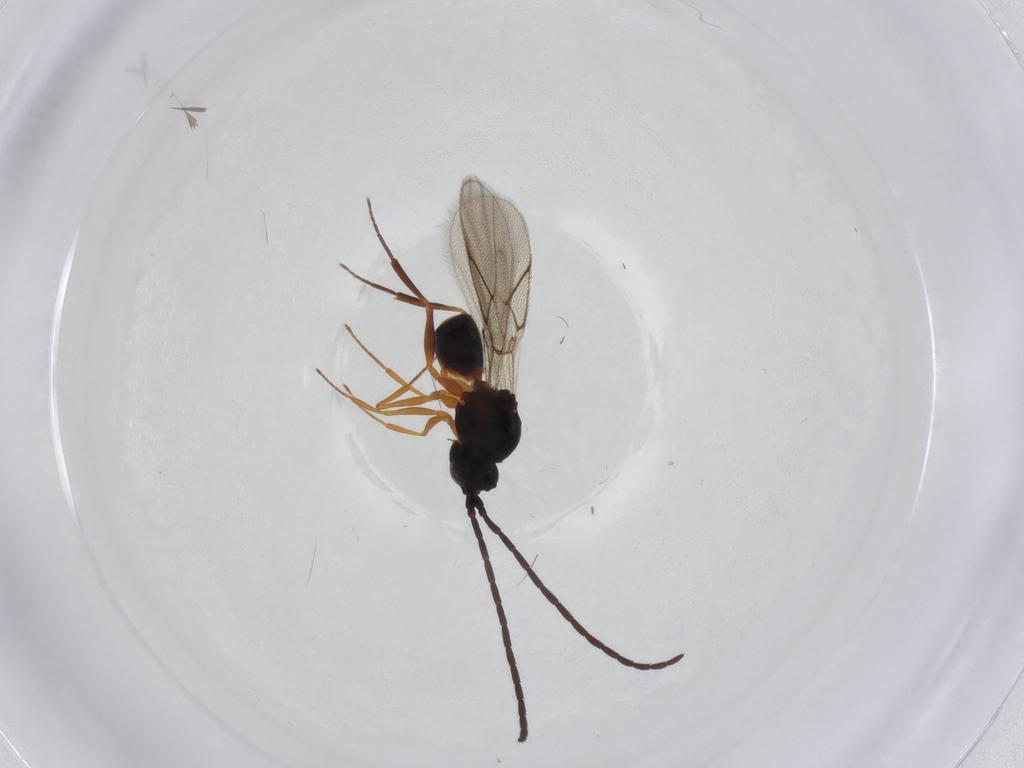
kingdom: Animalia
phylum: Arthropoda
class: Insecta
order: Hymenoptera
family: Figitidae
